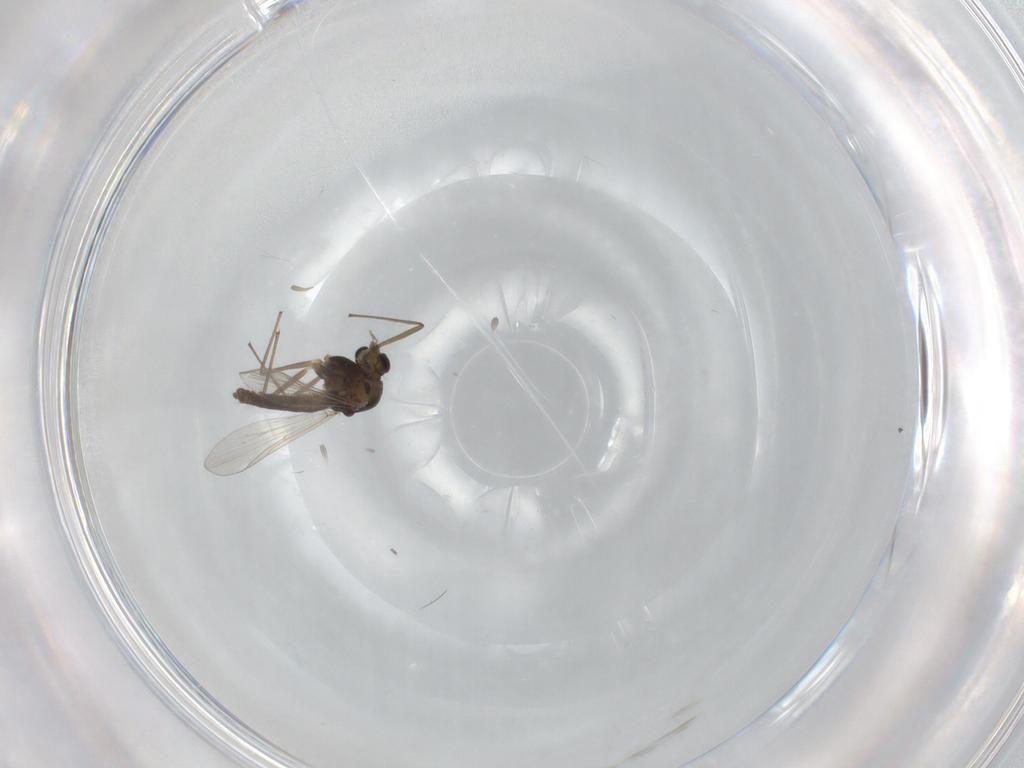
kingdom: Animalia
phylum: Arthropoda
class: Insecta
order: Diptera
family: Chironomidae
